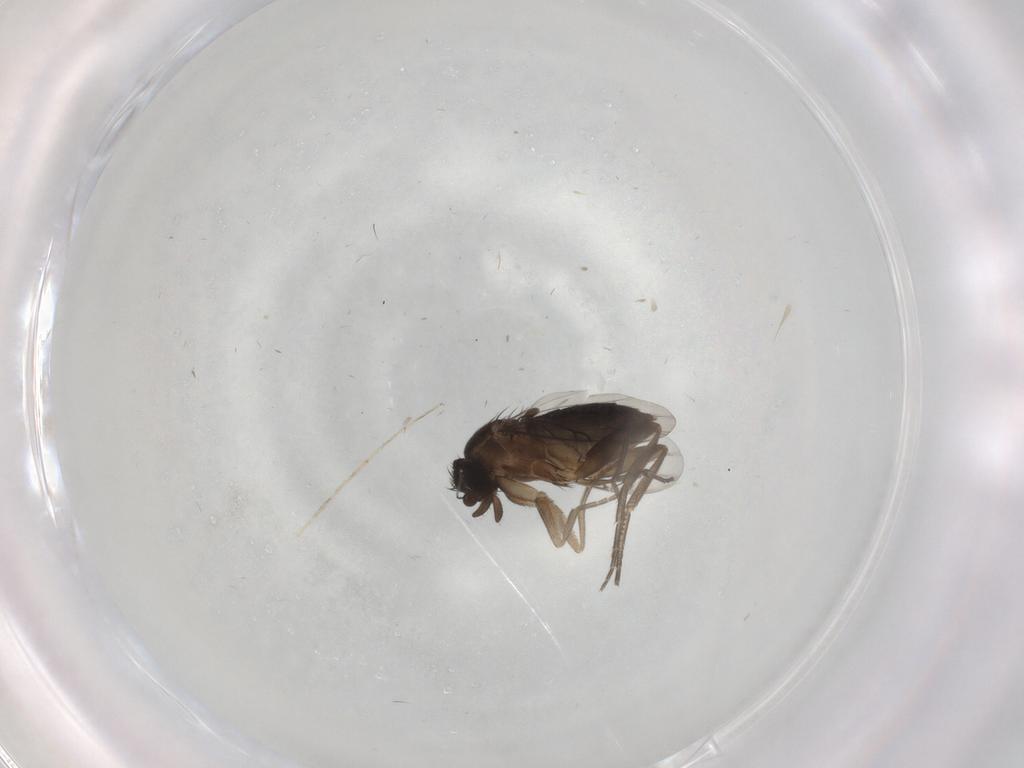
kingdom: Animalia
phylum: Arthropoda
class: Insecta
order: Diptera
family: Phoridae
